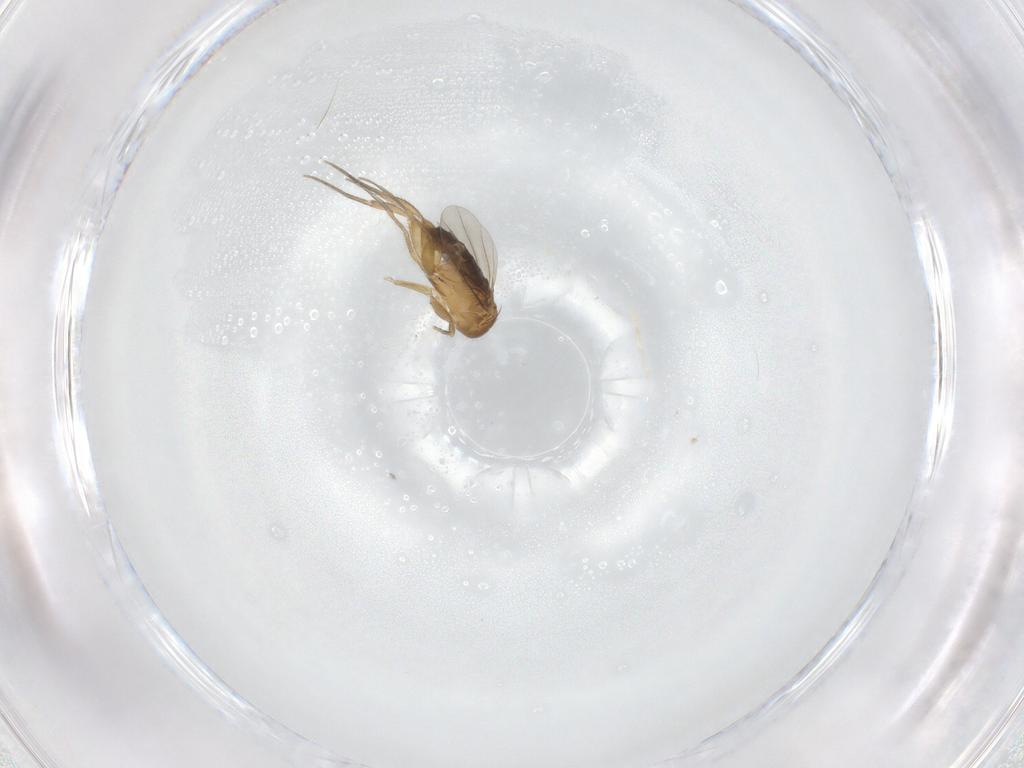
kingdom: Animalia
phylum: Arthropoda
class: Insecta
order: Diptera
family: Phoridae
